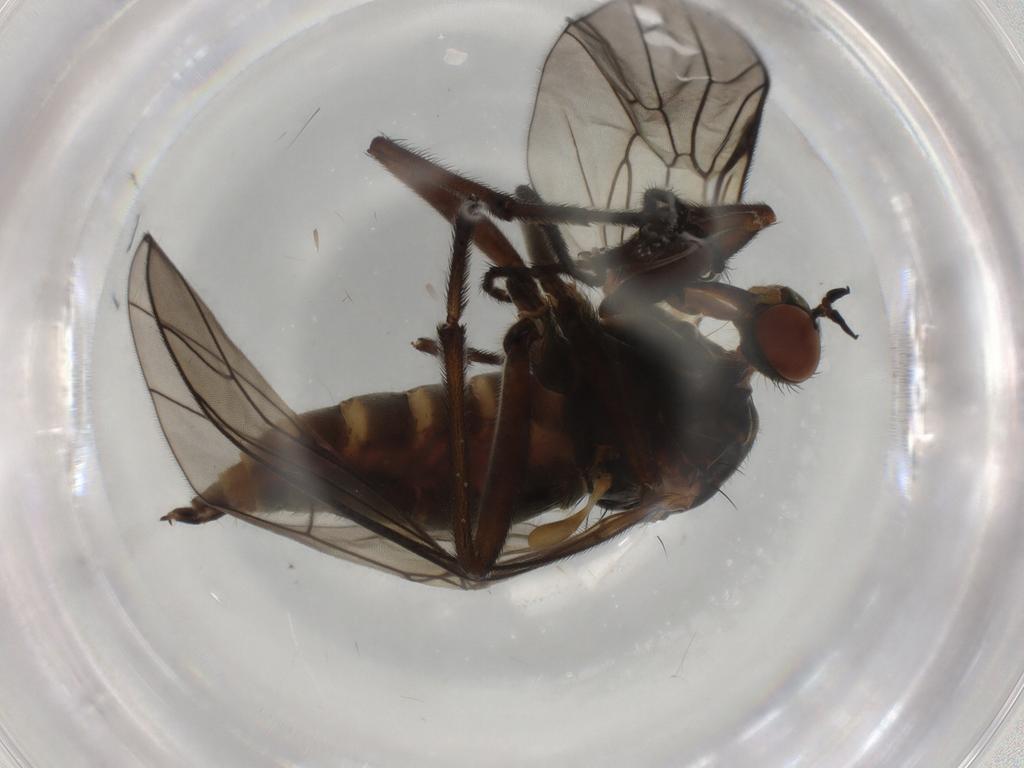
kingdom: Animalia
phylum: Arthropoda
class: Insecta
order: Diptera
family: Empididae
